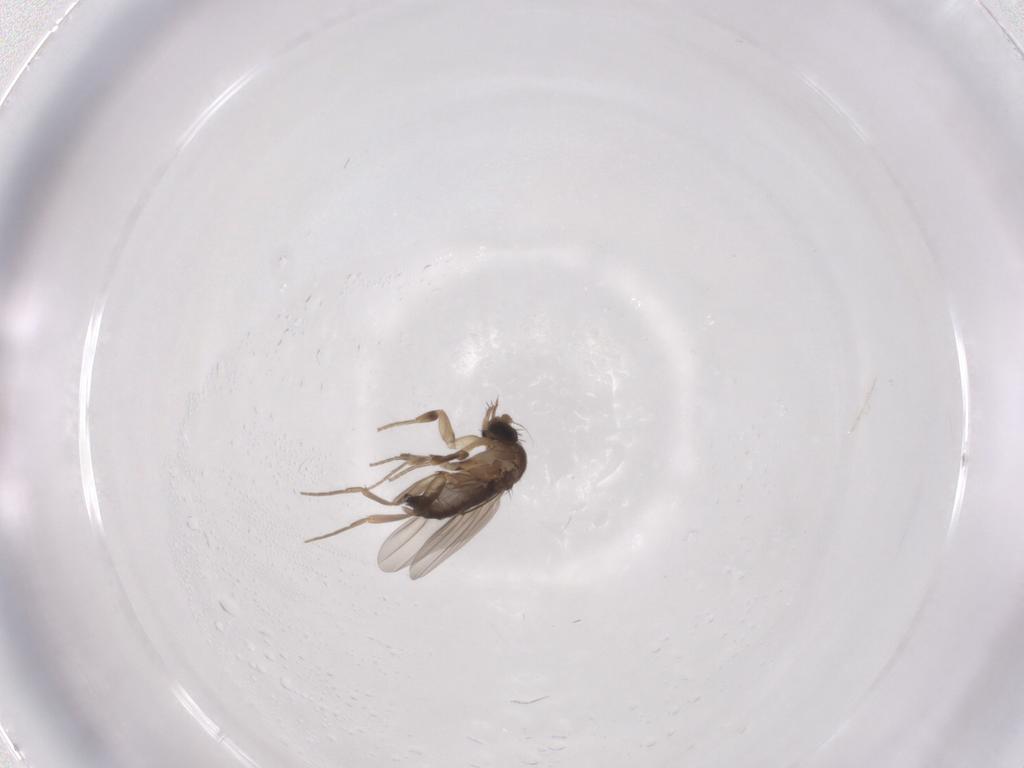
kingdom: Animalia
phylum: Arthropoda
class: Insecta
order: Diptera
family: Phoridae
